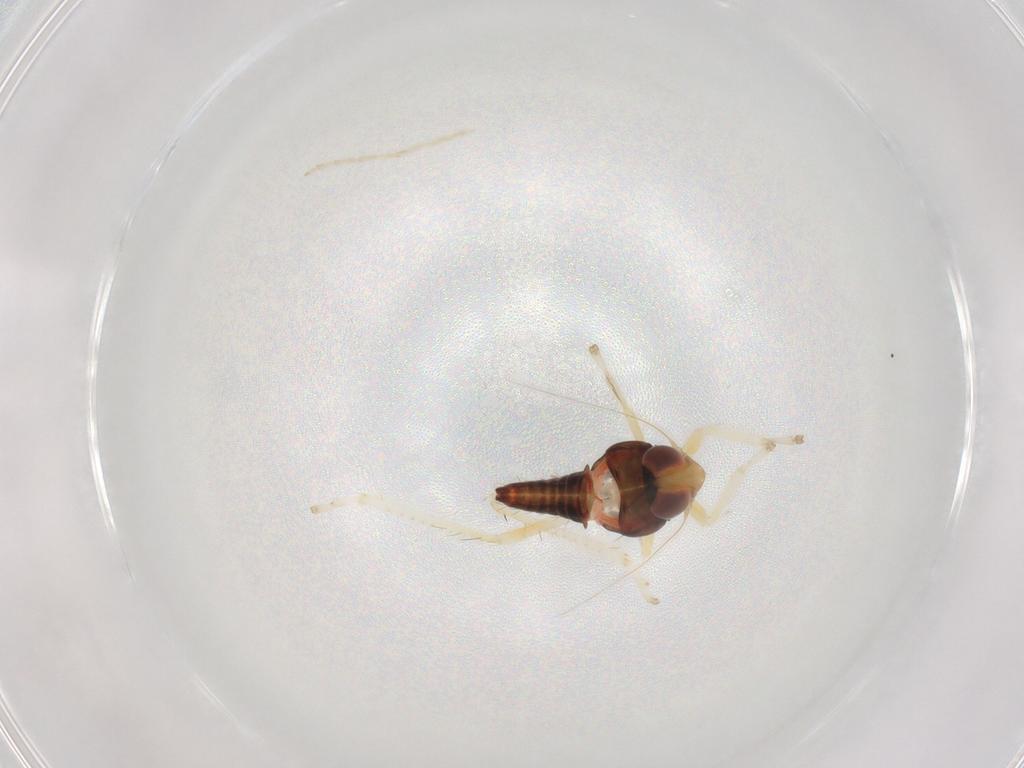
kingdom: Animalia
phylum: Arthropoda
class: Insecta
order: Hemiptera
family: Cicadellidae
